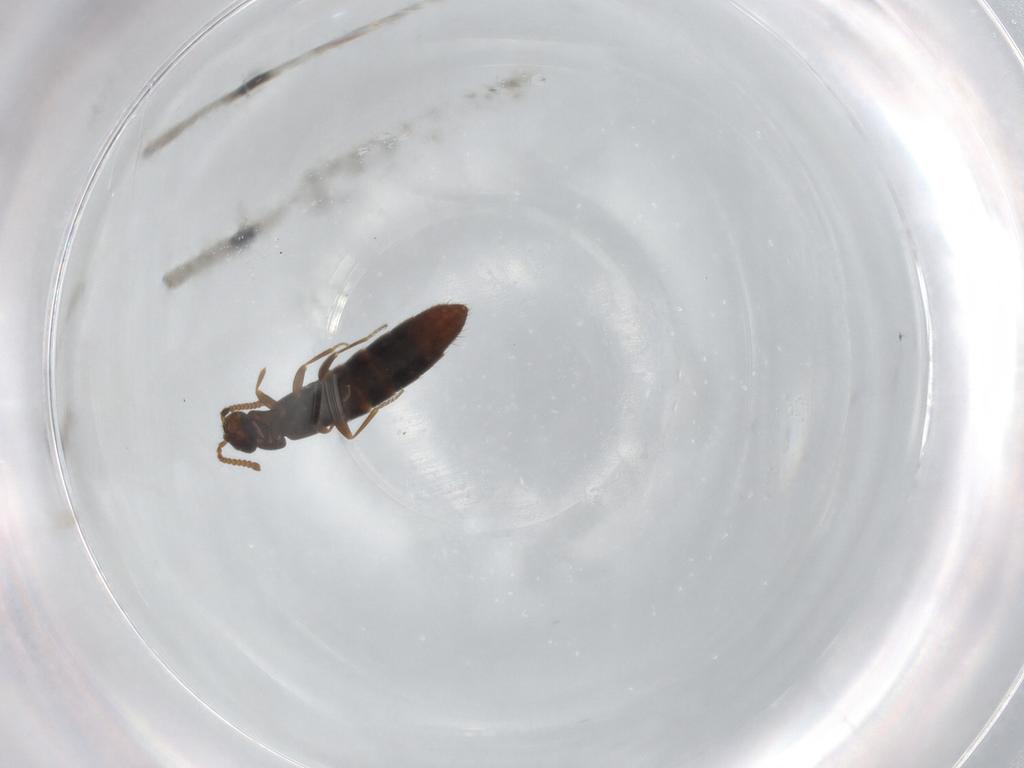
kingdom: Animalia
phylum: Arthropoda
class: Insecta
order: Coleoptera
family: Staphylinidae
